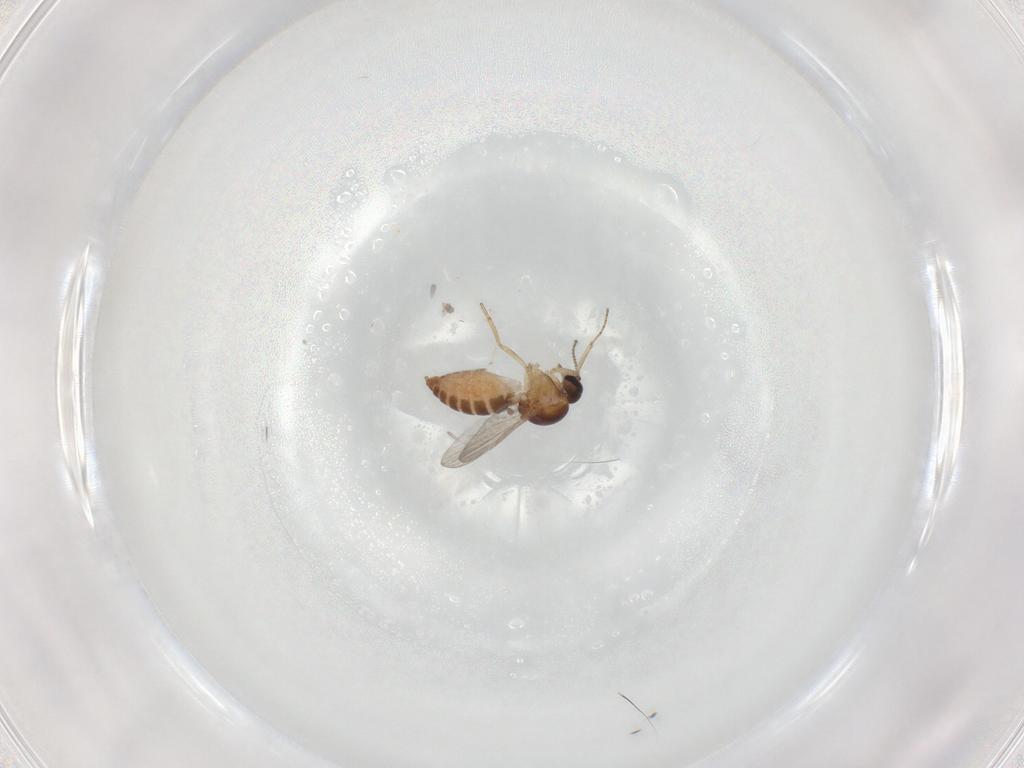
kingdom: Animalia
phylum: Arthropoda
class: Insecta
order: Diptera
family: Ceratopogonidae
